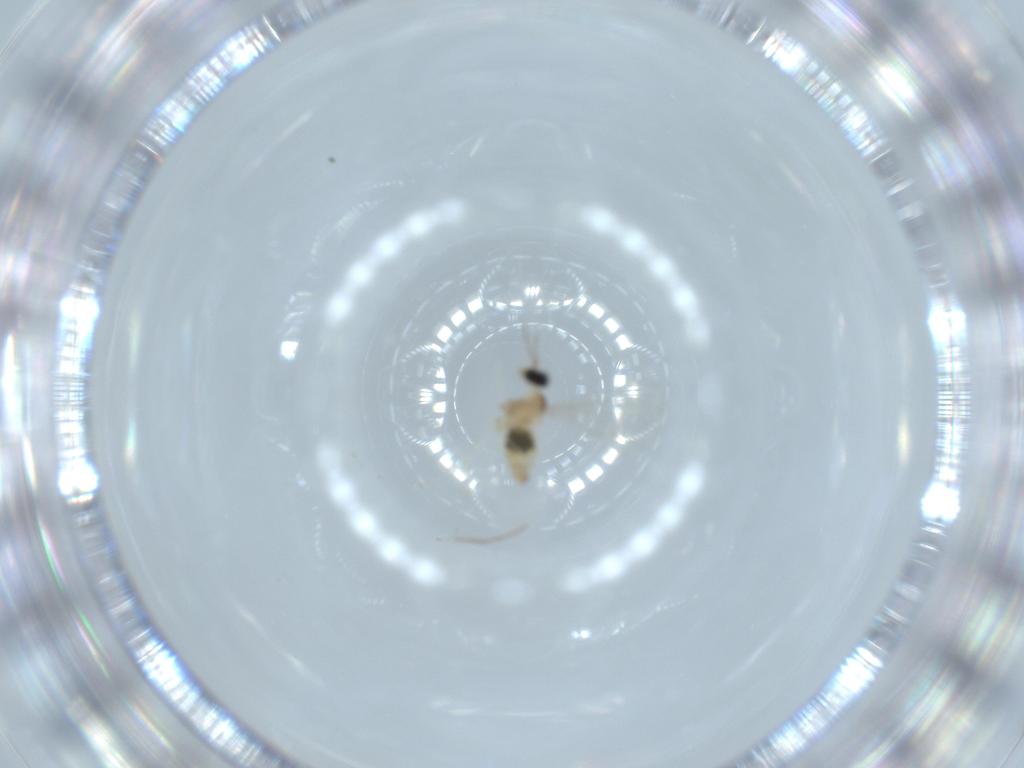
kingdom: Animalia
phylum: Arthropoda
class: Insecta
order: Diptera
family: Cecidomyiidae
